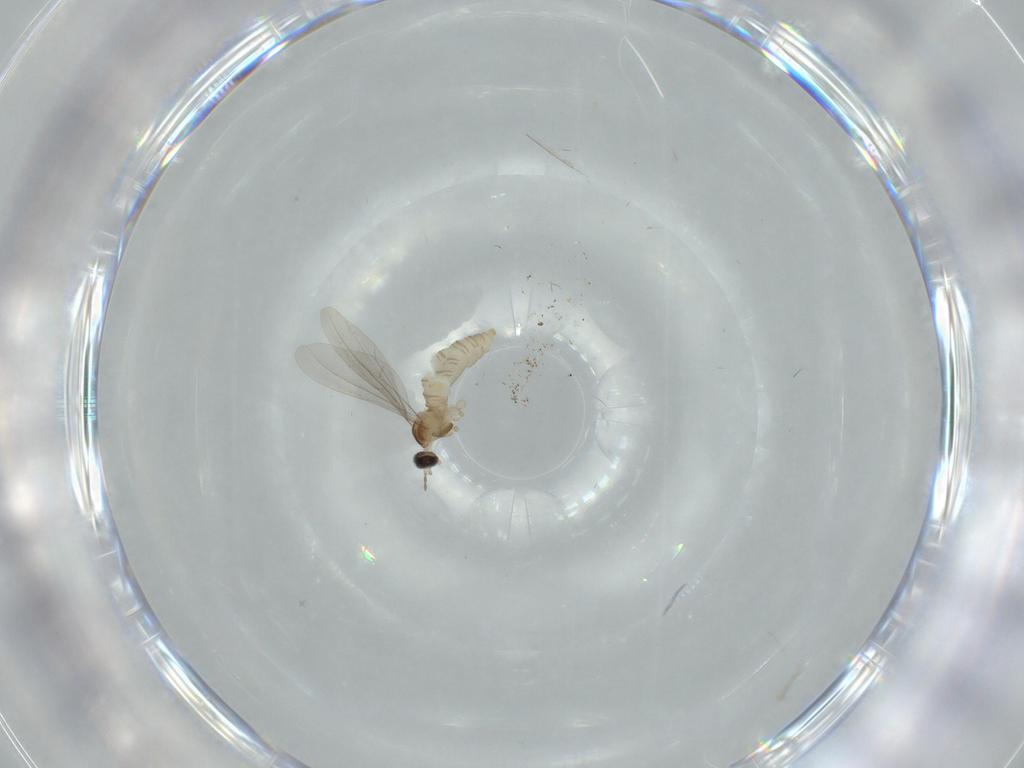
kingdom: Animalia
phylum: Arthropoda
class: Insecta
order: Diptera
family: Cecidomyiidae
